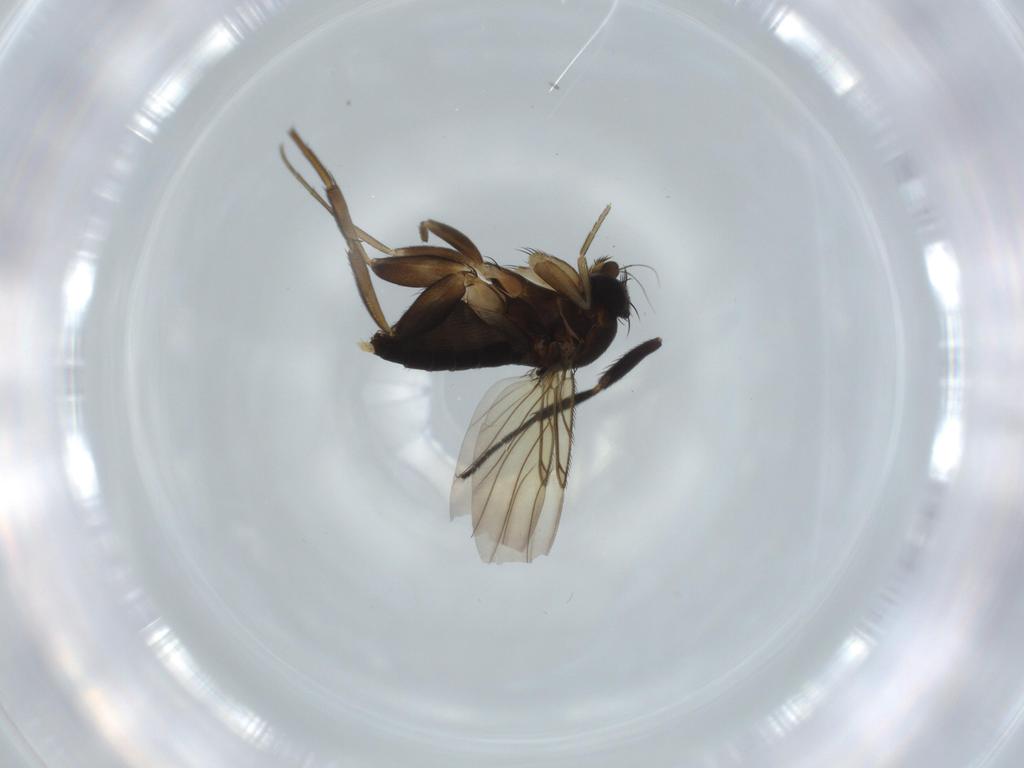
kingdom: Animalia
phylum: Arthropoda
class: Insecta
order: Diptera
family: Phoridae
